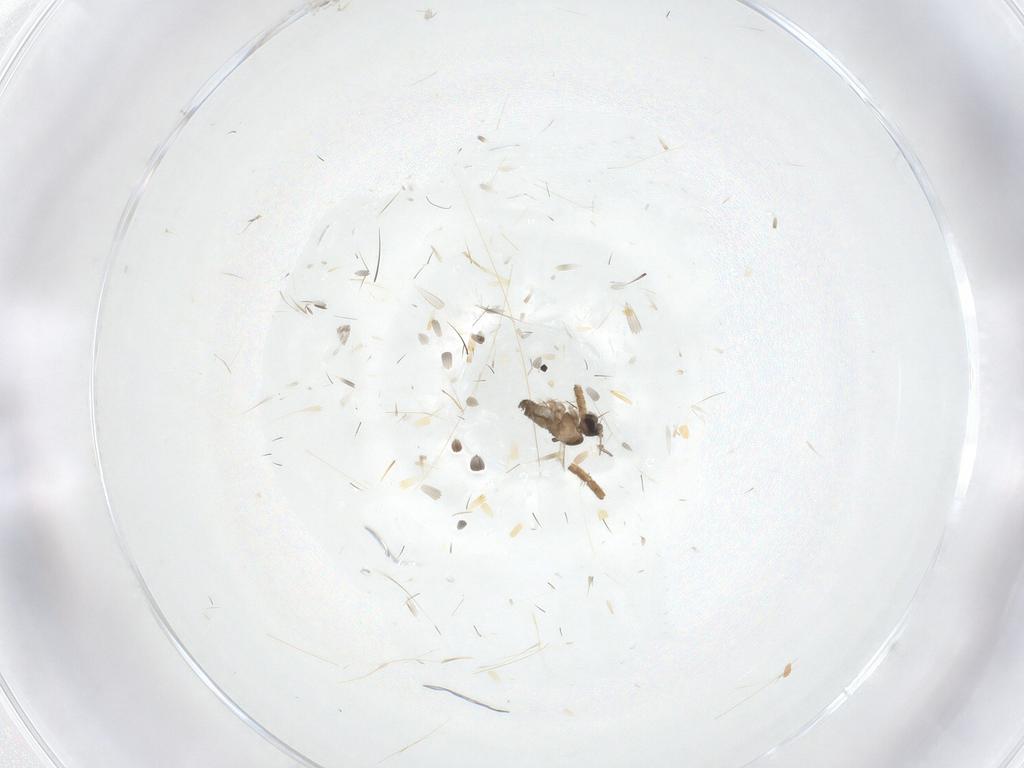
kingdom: Animalia
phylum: Arthropoda
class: Insecta
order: Diptera
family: Cecidomyiidae
